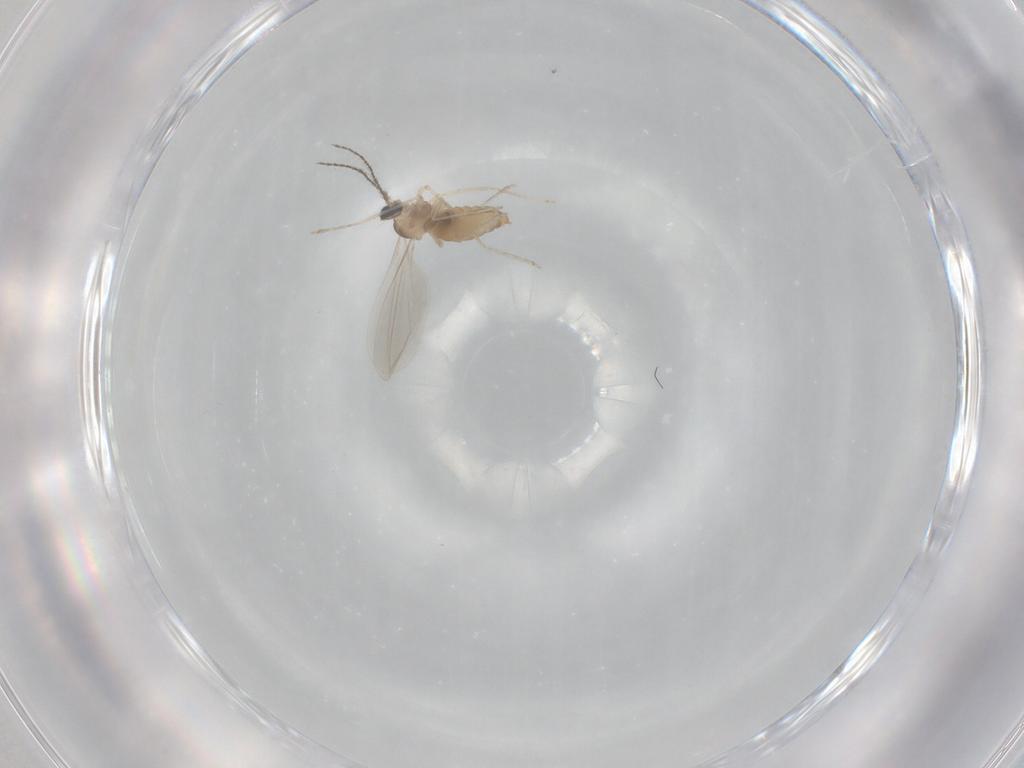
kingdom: Animalia
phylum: Arthropoda
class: Insecta
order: Diptera
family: Cecidomyiidae
